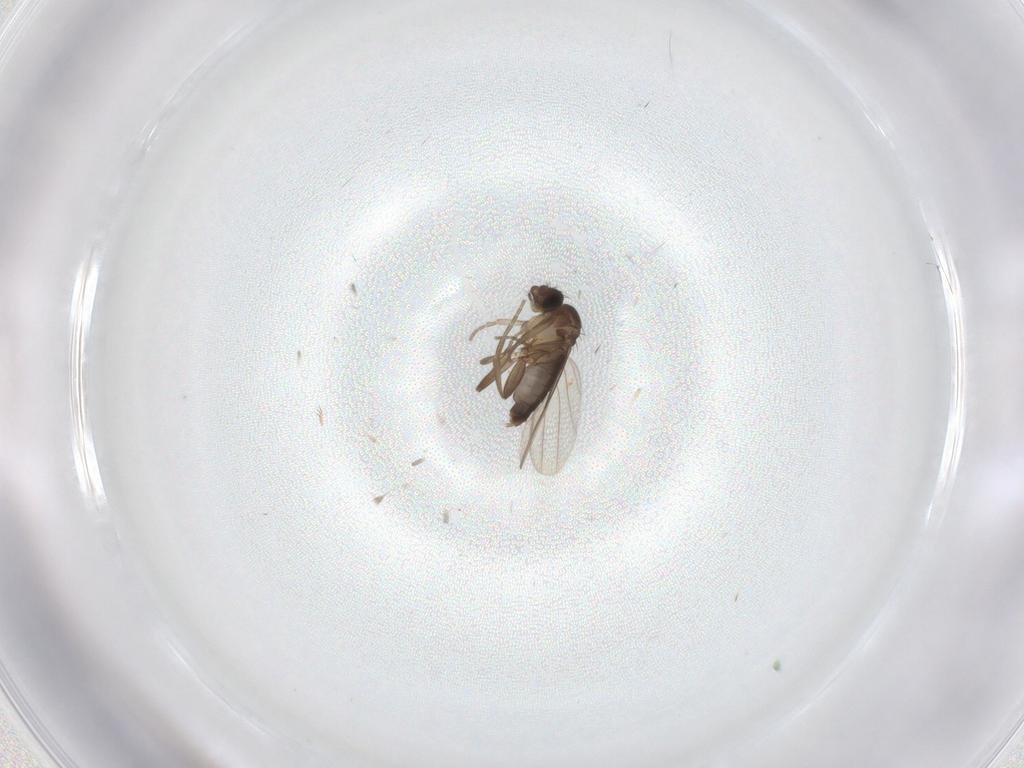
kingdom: Animalia
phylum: Arthropoda
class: Insecta
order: Diptera
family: Phoridae
